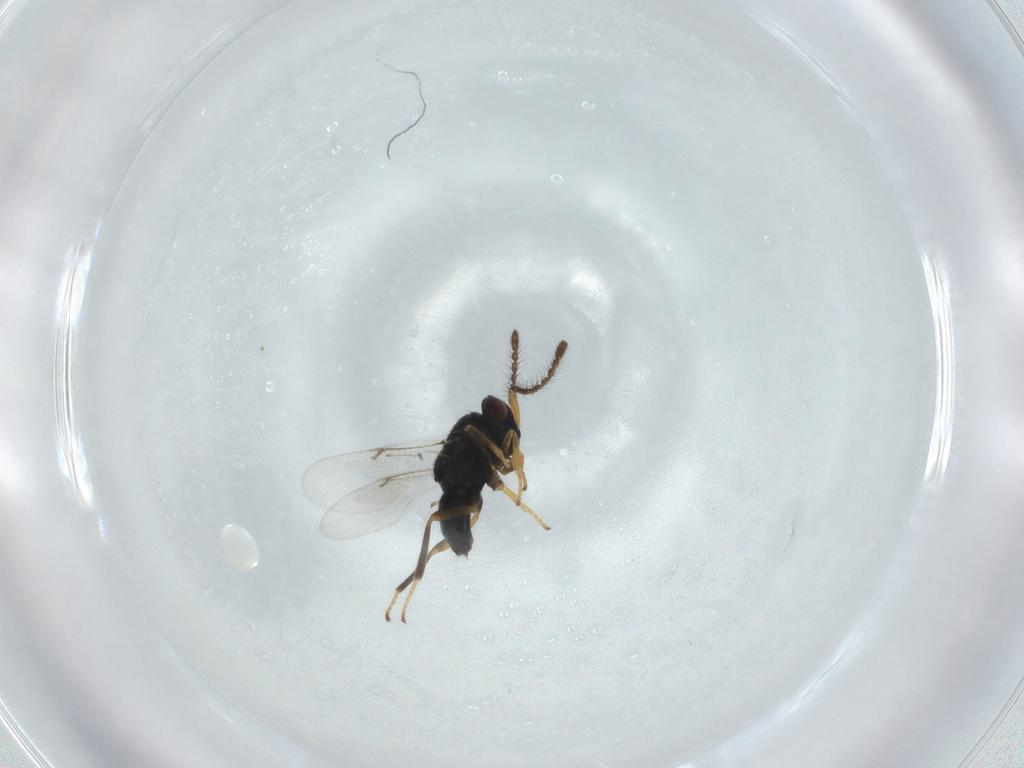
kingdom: Animalia
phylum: Arthropoda
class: Insecta
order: Hymenoptera
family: Encyrtidae
